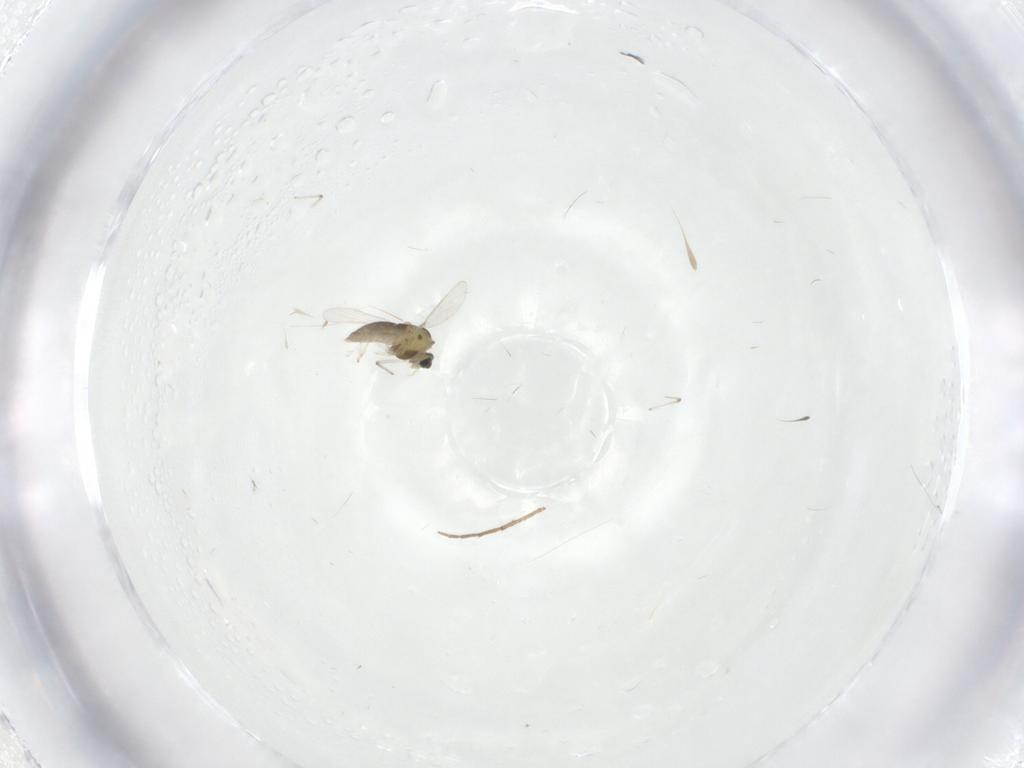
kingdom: Animalia
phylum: Arthropoda
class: Insecta
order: Diptera
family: Chironomidae
